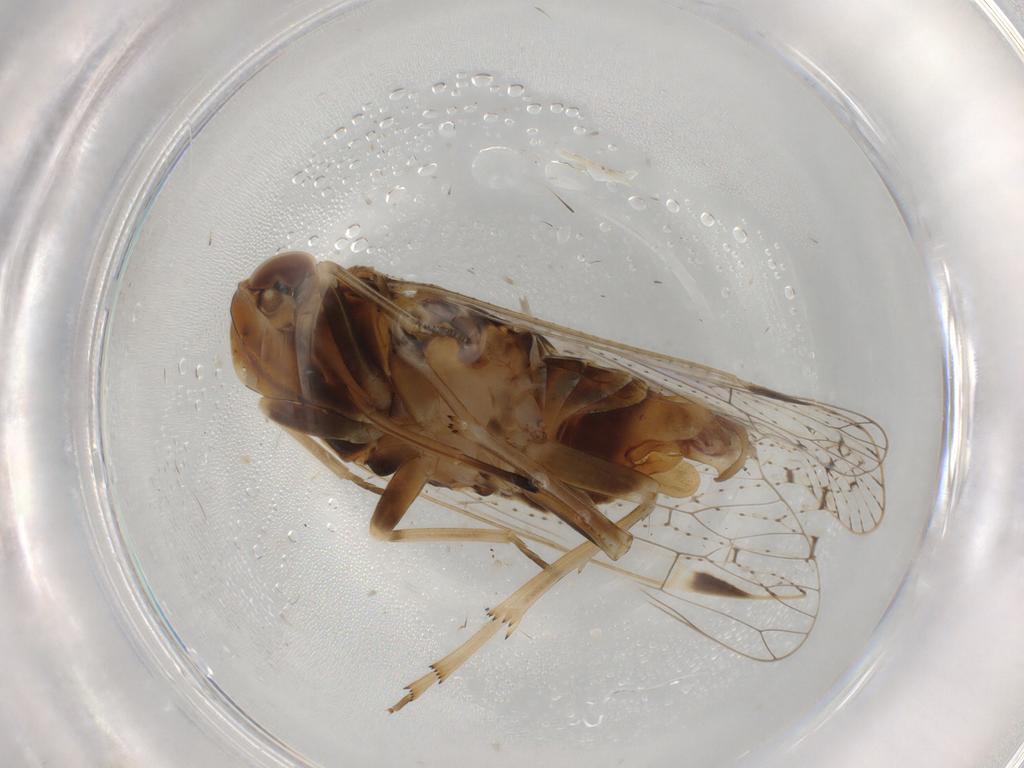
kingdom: Animalia
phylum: Arthropoda
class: Insecta
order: Hemiptera
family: Cixiidae
